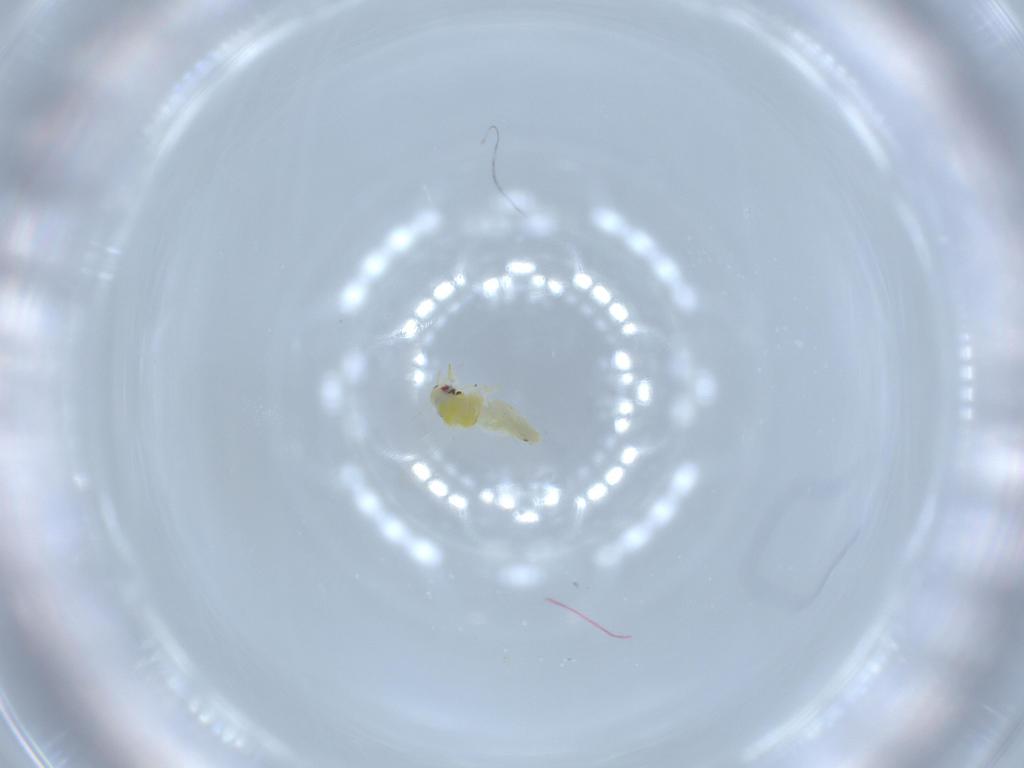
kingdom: Animalia
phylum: Arthropoda
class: Insecta
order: Hemiptera
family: Aleyrodidae
